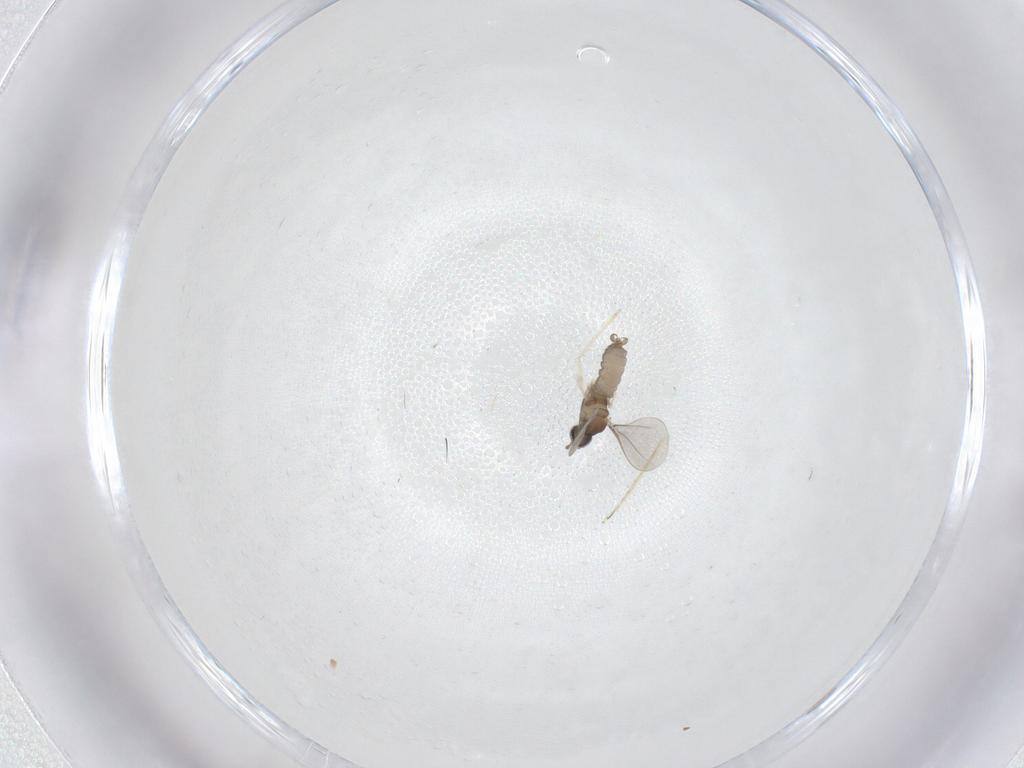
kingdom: Animalia
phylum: Arthropoda
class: Insecta
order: Diptera
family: Cecidomyiidae
